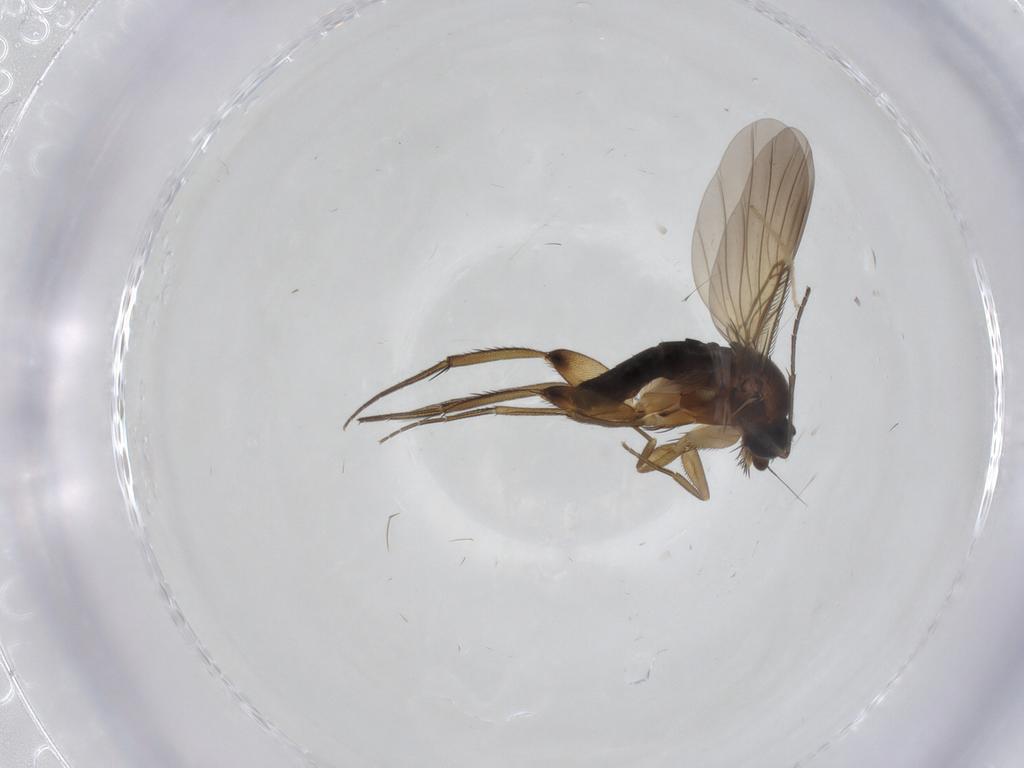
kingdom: Animalia
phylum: Arthropoda
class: Insecta
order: Diptera
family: Phoridae
